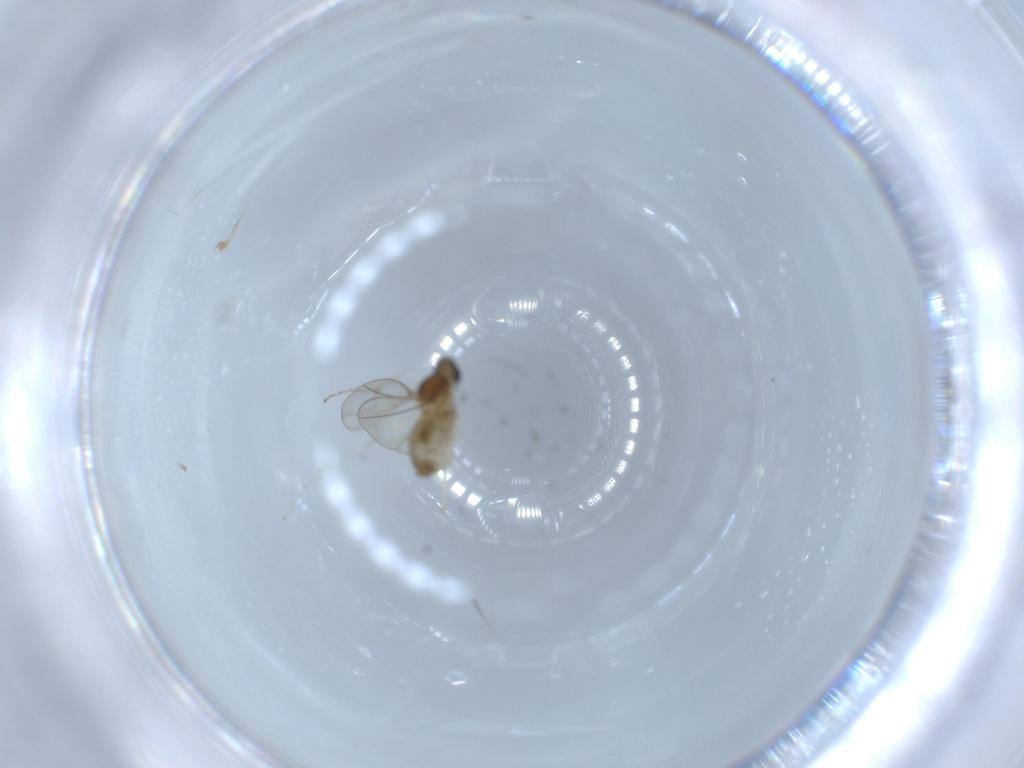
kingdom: Animalia
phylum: Arthropoda
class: Insecta
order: Diptera
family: Cecidomyiidae
